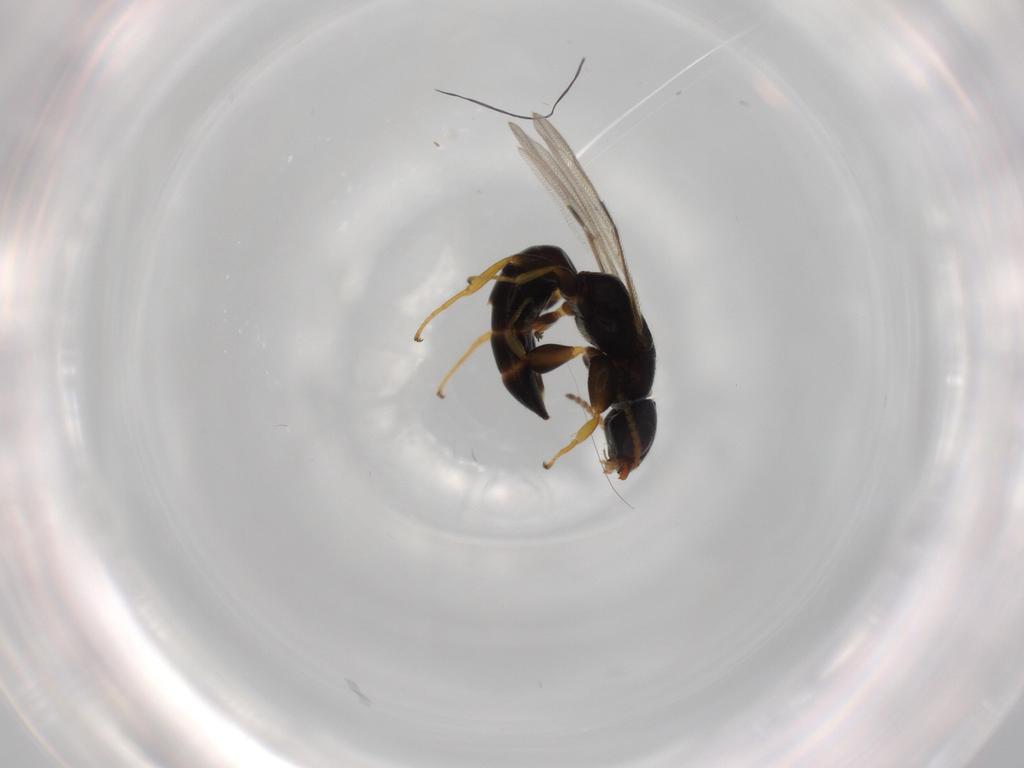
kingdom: Animalia
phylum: Arthropoda
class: Insecta
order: Hymenoptera
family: Bethylidae
